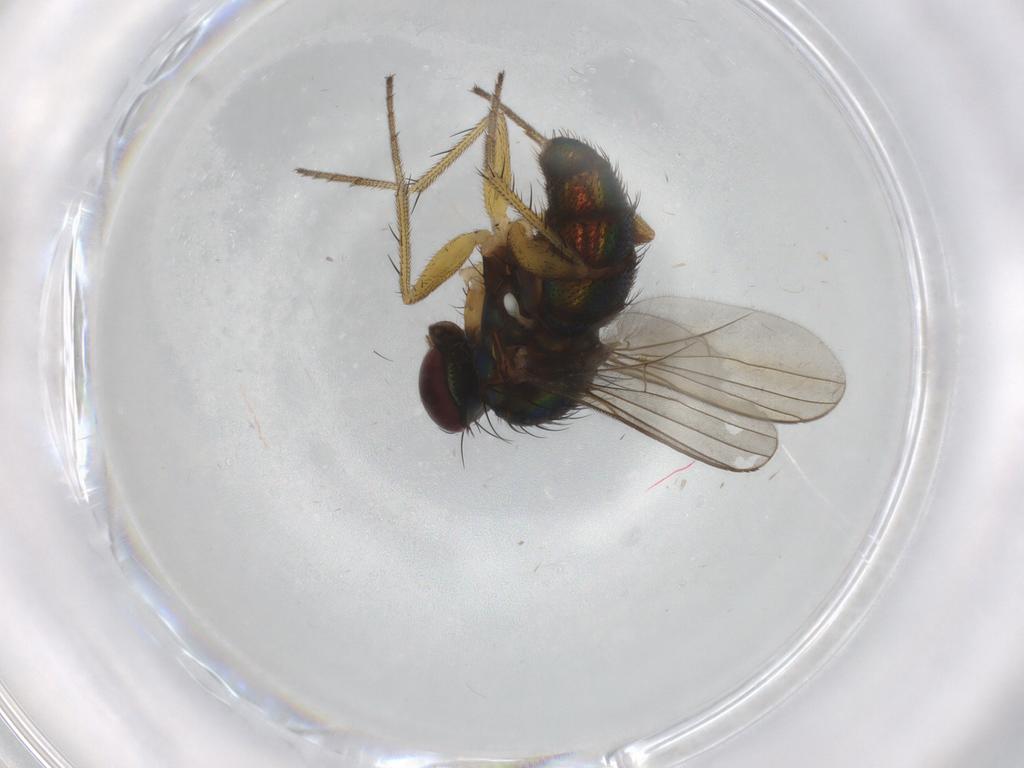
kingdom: Animalia
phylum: Arthropoda
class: Insecta
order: Diptera
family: Dolichopodidae
